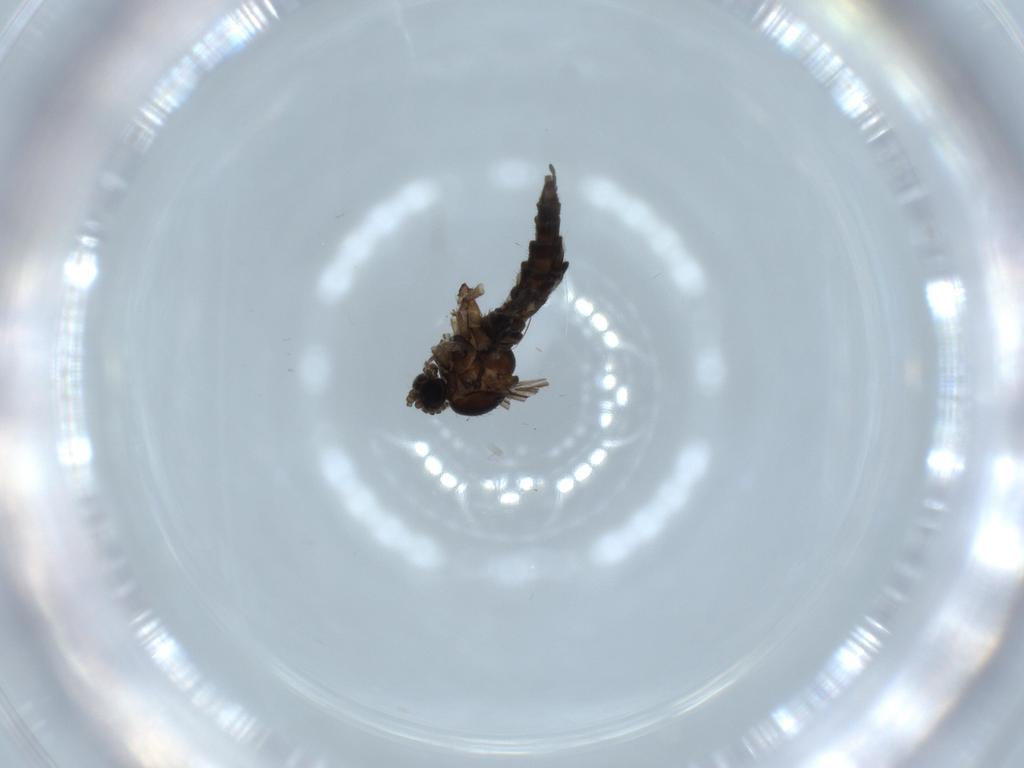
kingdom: Animalia
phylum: Arthropoda
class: Insecta
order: Diptera
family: Sciaridae
